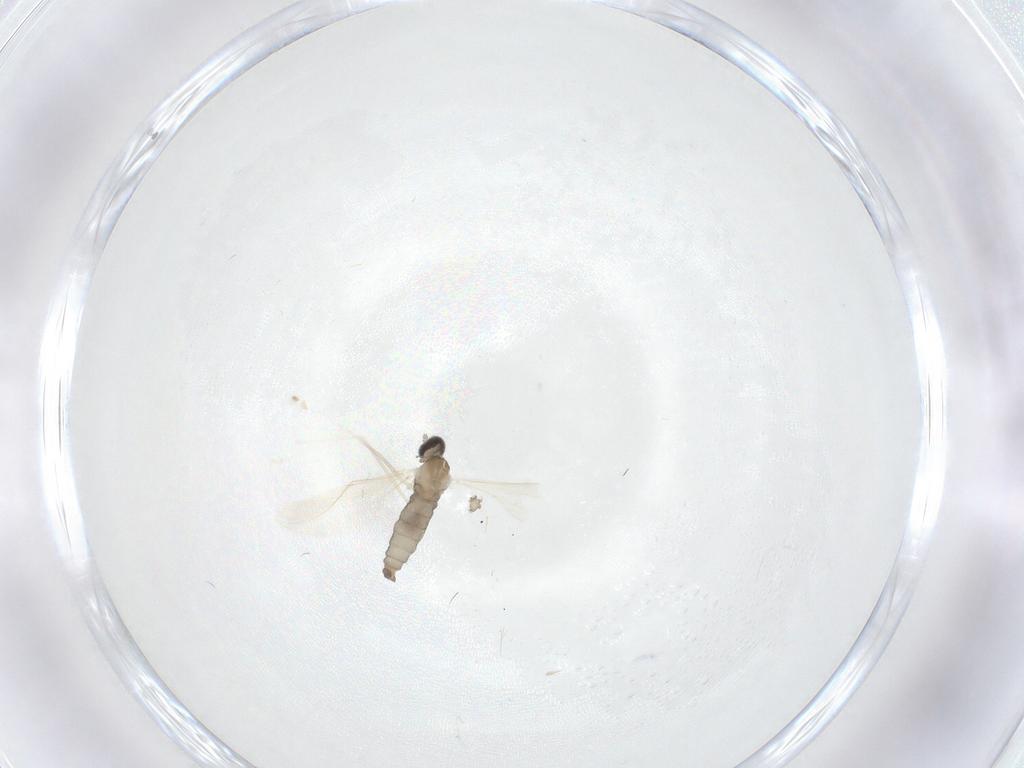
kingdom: Animalia
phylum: Arthropoda
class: Insecta
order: Diptera
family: Cecidomyiidae
